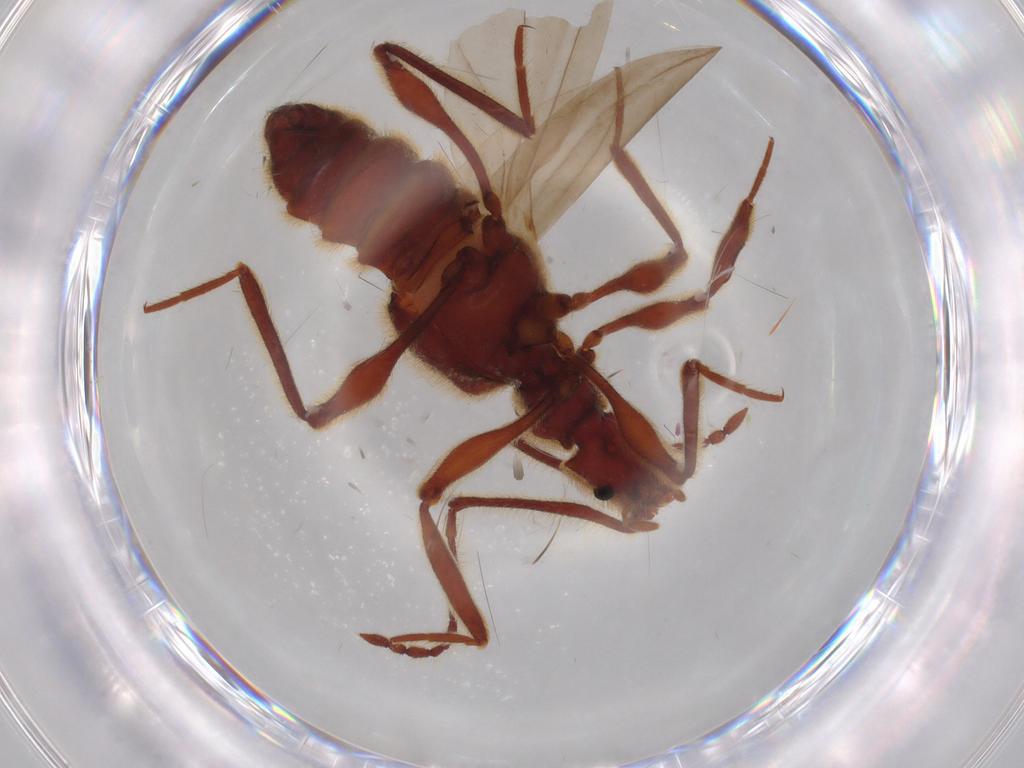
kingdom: Animalia
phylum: Arthropoda
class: Insecta
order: Coleoptera
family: Staphylinidae
